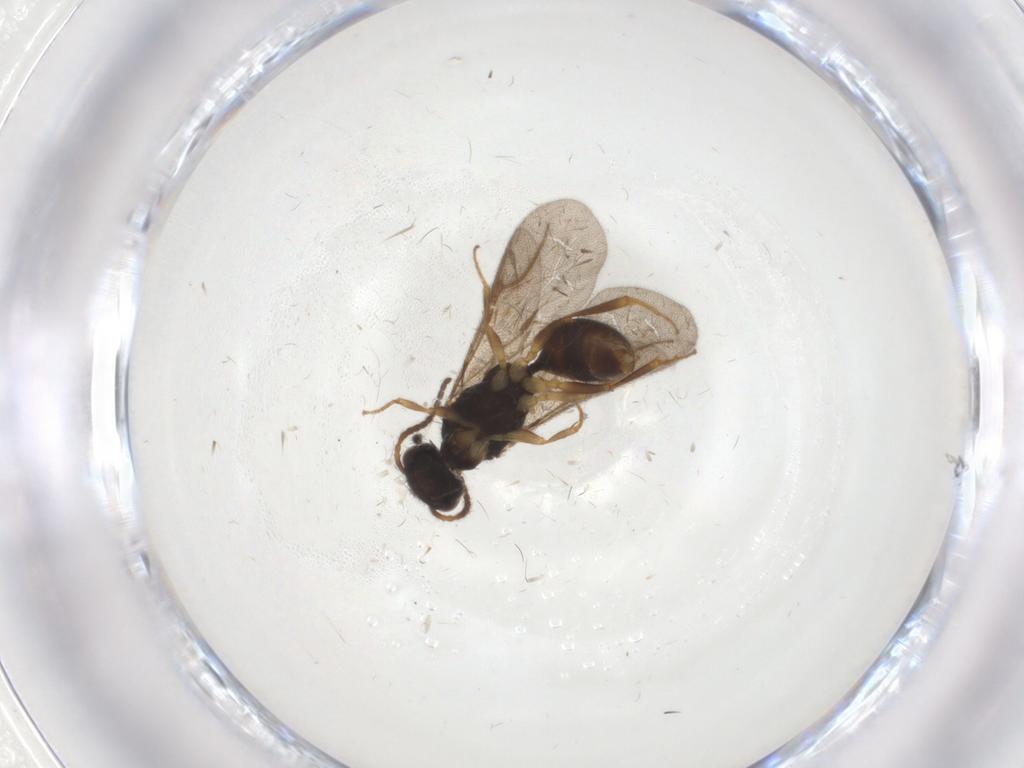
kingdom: Animalia
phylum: Arthropoda
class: Insecta
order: Hymenoptera
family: Bethylidae
